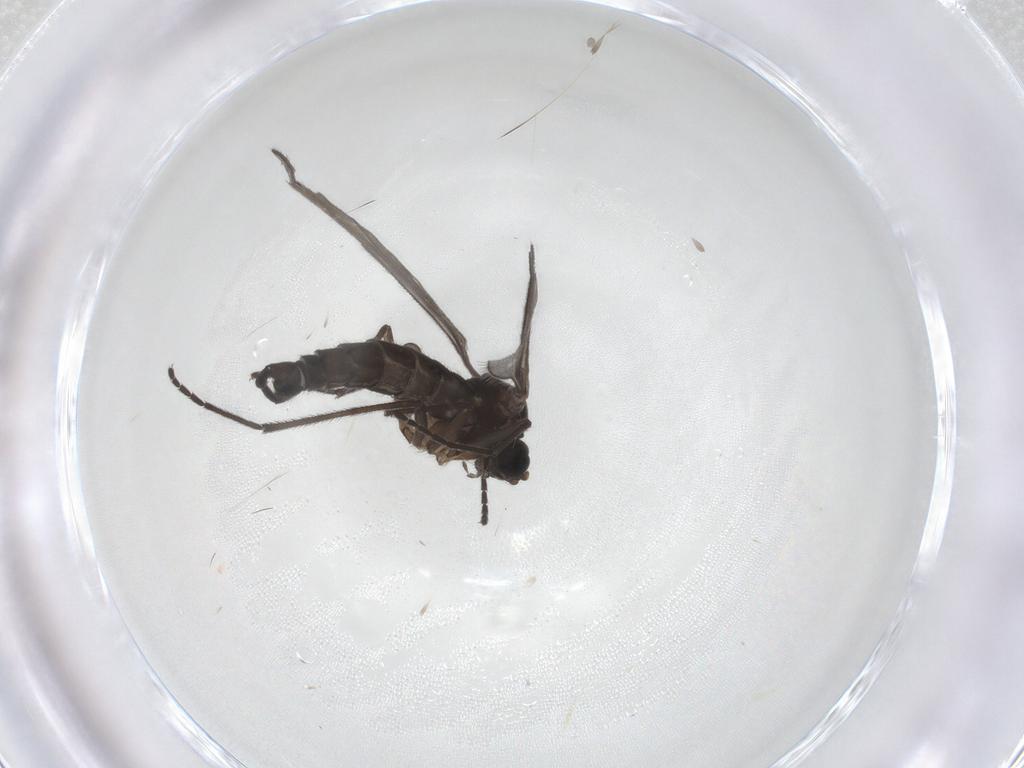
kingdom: Animalia
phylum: Arthropoda
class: Insecta
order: Diptera
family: Sciaridae
